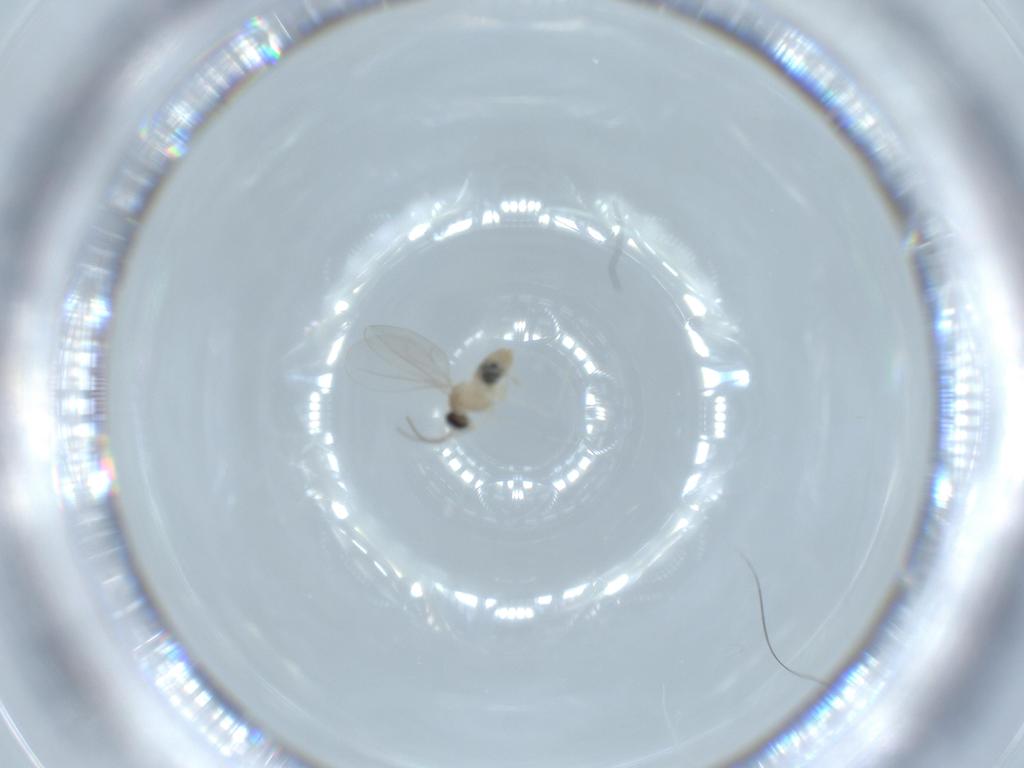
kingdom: Animalia
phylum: Arthropoda
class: Insecta
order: Diptera
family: Cecidomyiidae
